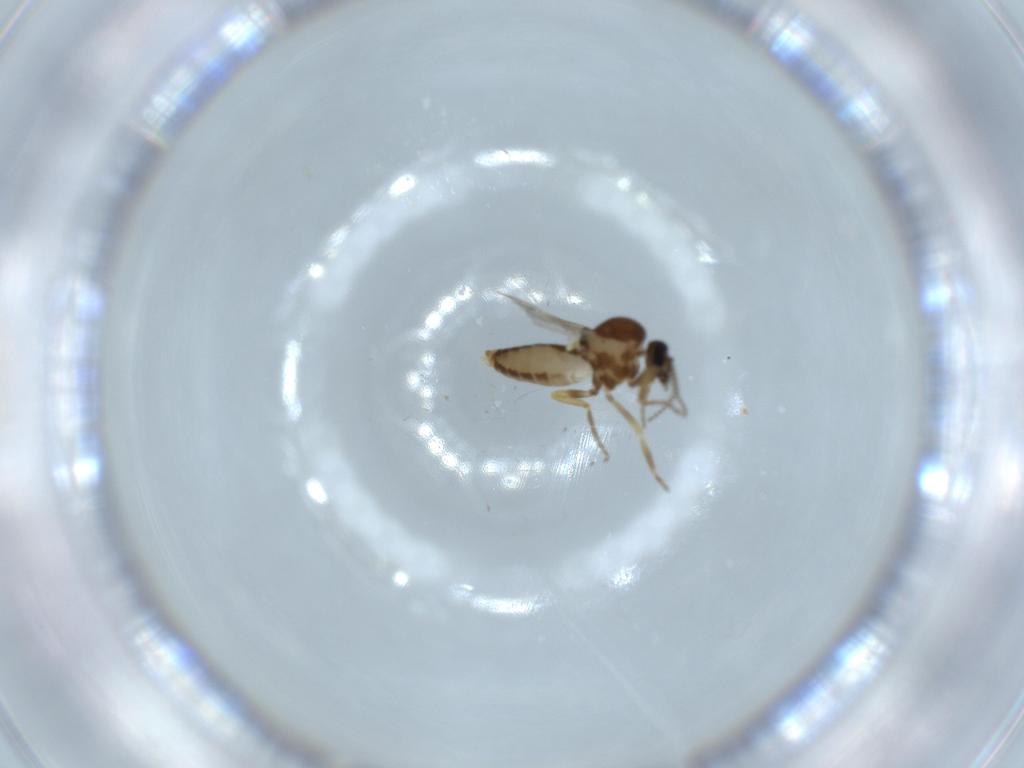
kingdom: Animalia
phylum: Arthropoda
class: Insecta
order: Diptera
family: Ceratopogonidae
